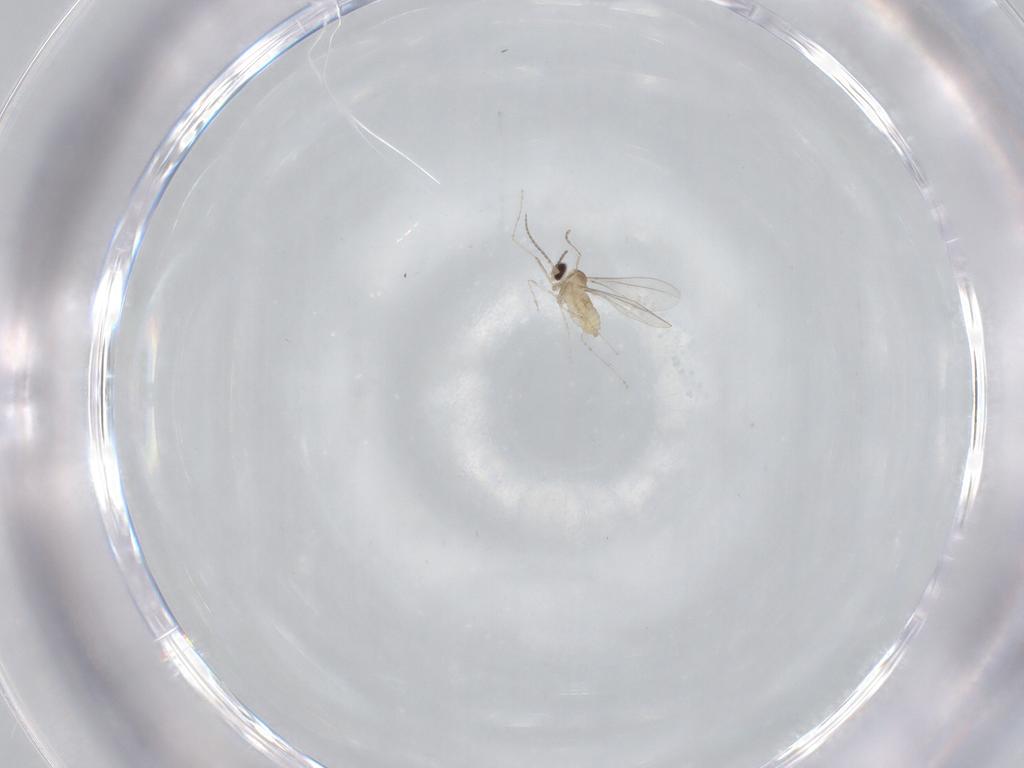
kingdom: Animalia
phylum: Arthropoda
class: Insecta
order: Diptera
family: Cecidomyiidae
